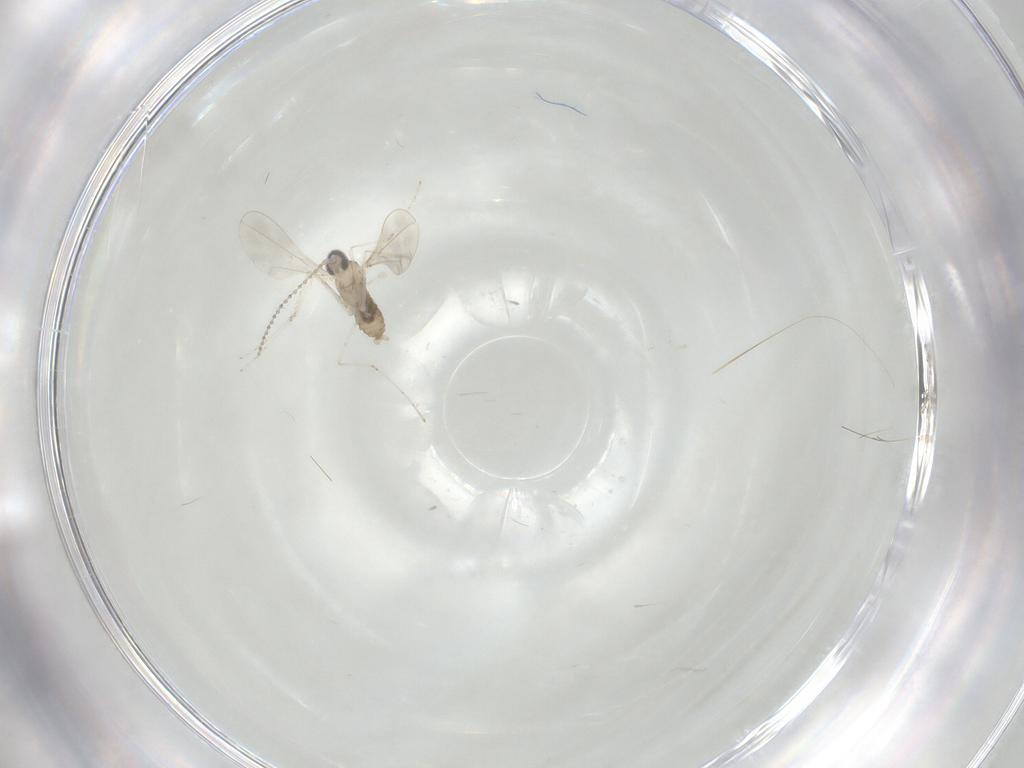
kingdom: Animalia
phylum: Arthropoda
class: Insecta
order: Diptera
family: Cecidomyiidae
